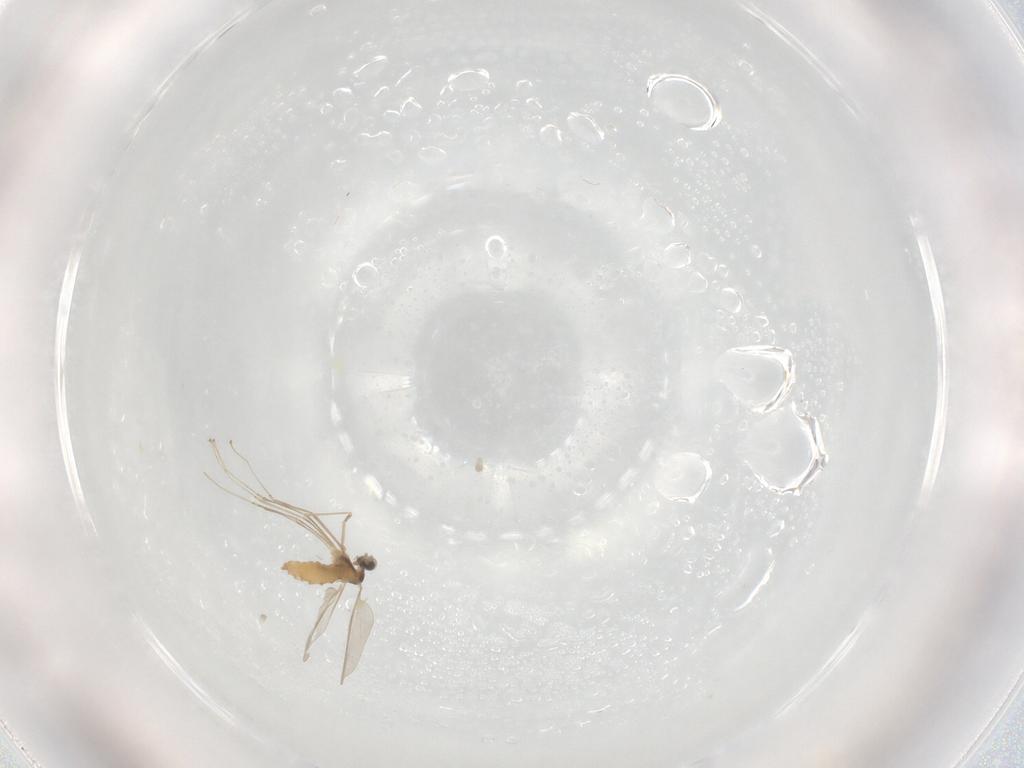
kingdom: Animalia
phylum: Arthropoda
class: Insecta
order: Diptera
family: Cecidomyiidae
